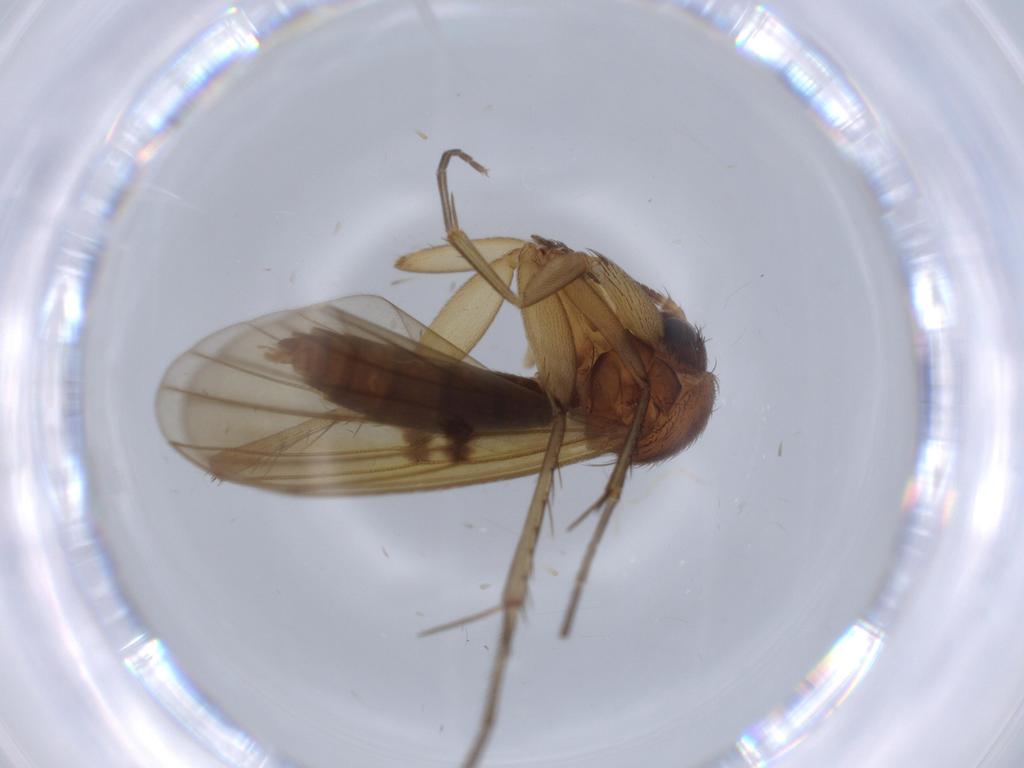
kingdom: Animalia
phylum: Arthropoda
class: Insecta
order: Diptera
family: Mycetophilidae
